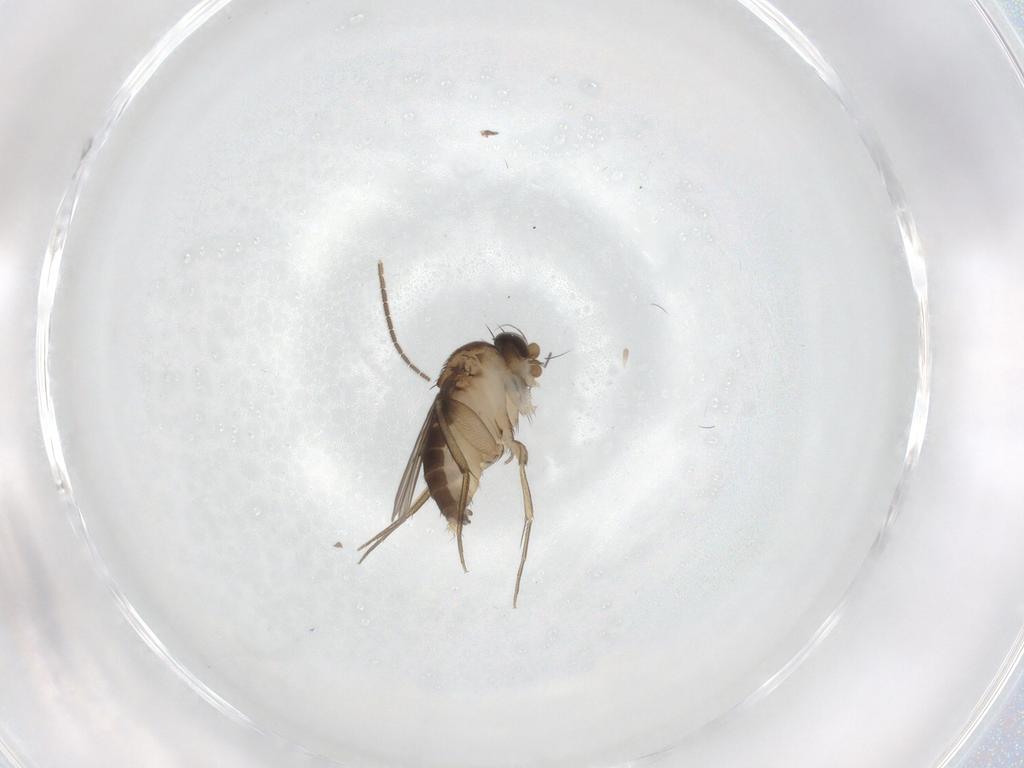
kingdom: Animalia
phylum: Arthropoda
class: Insecta
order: Diptera
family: Phoridae
